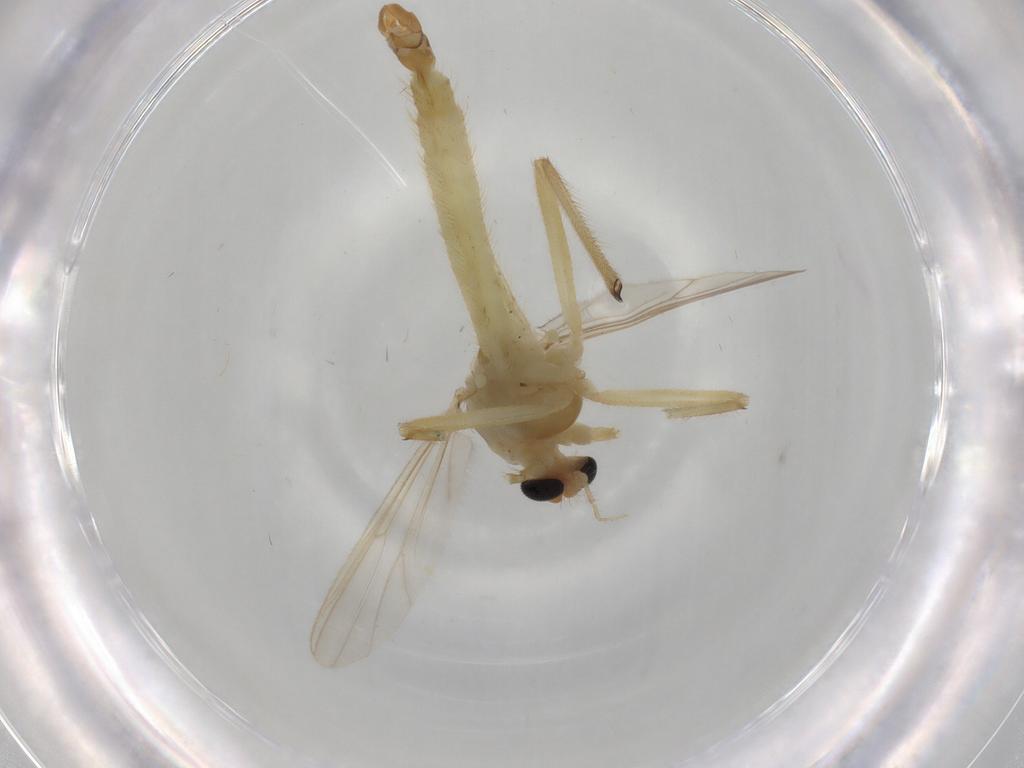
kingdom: Animalia
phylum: Arthropoda
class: Insecta
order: Diptera
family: Sciaridae
